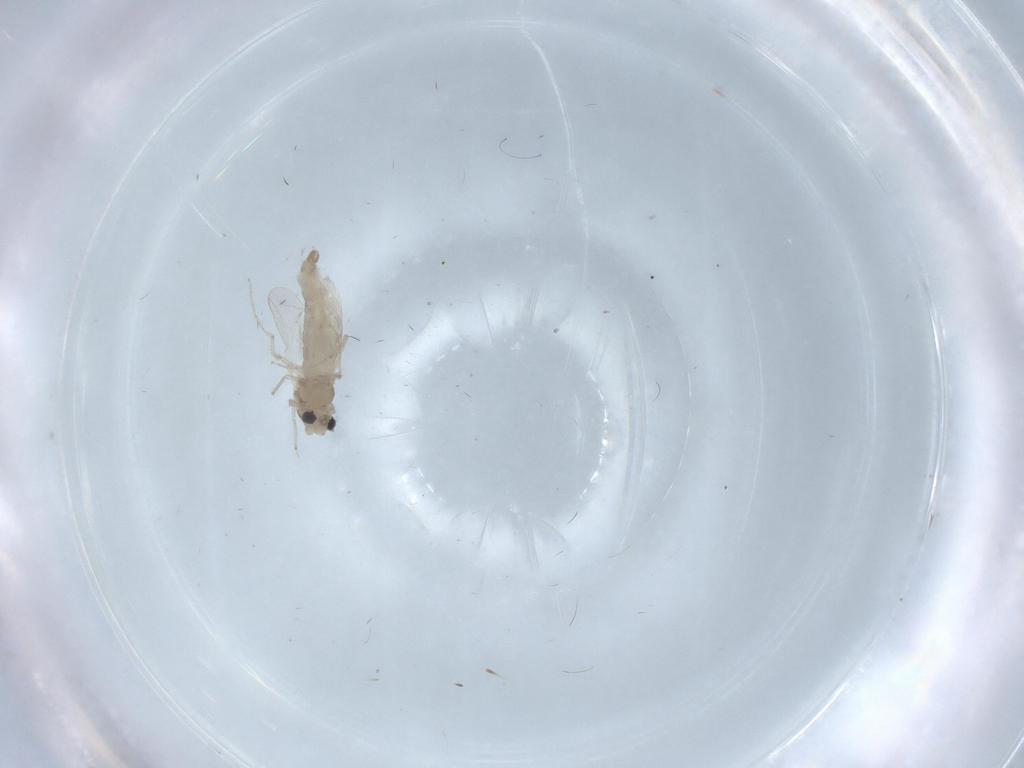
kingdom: Animalia
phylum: Arthropoda
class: Insecta
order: Diptera
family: Chironomidae
